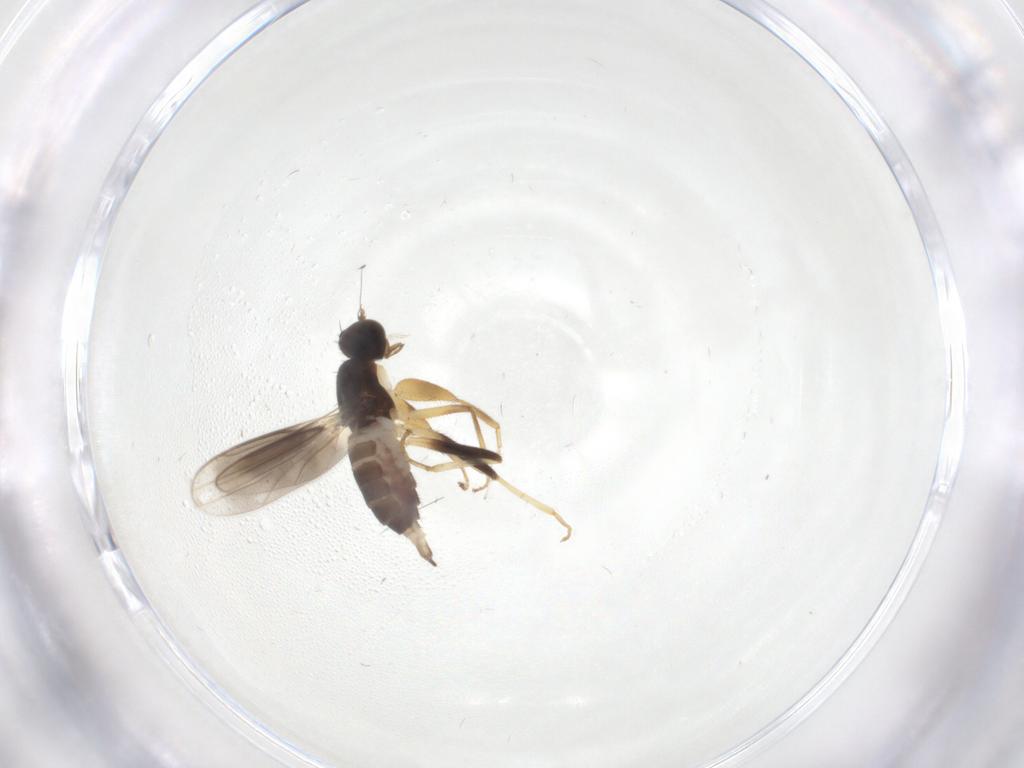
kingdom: Animalia
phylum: Arthropoda
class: Insecta
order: Diptera
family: Hybotidae
